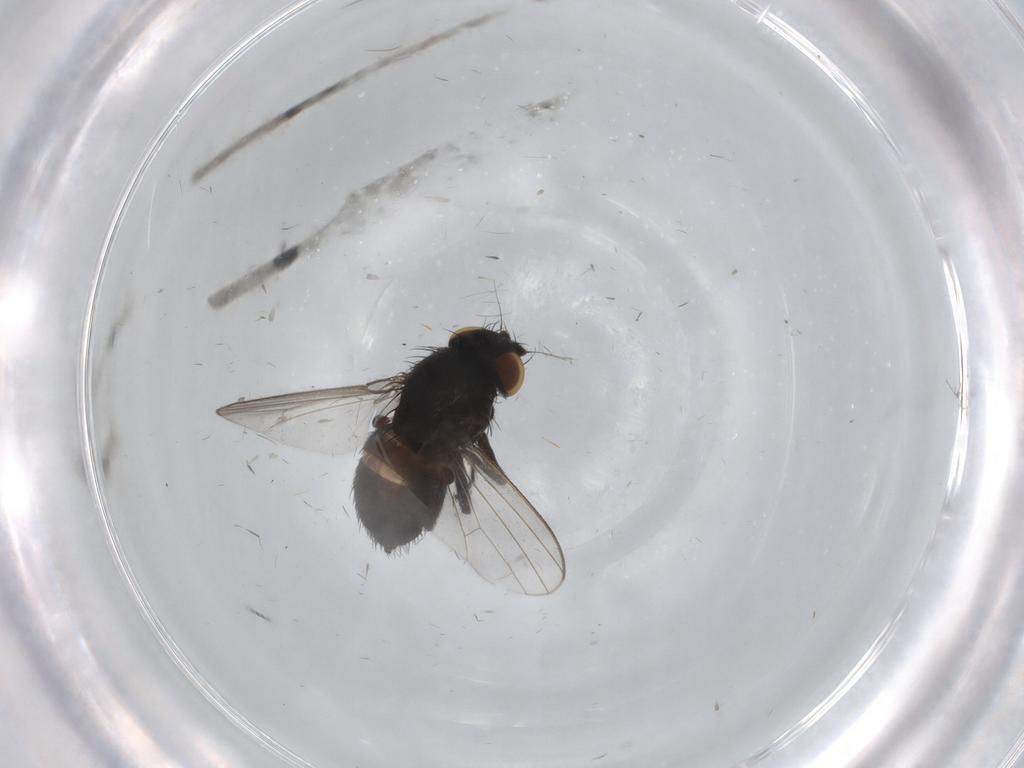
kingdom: Animalia
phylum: Arthropoda
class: Insecta
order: Diptera
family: Milichiidae
